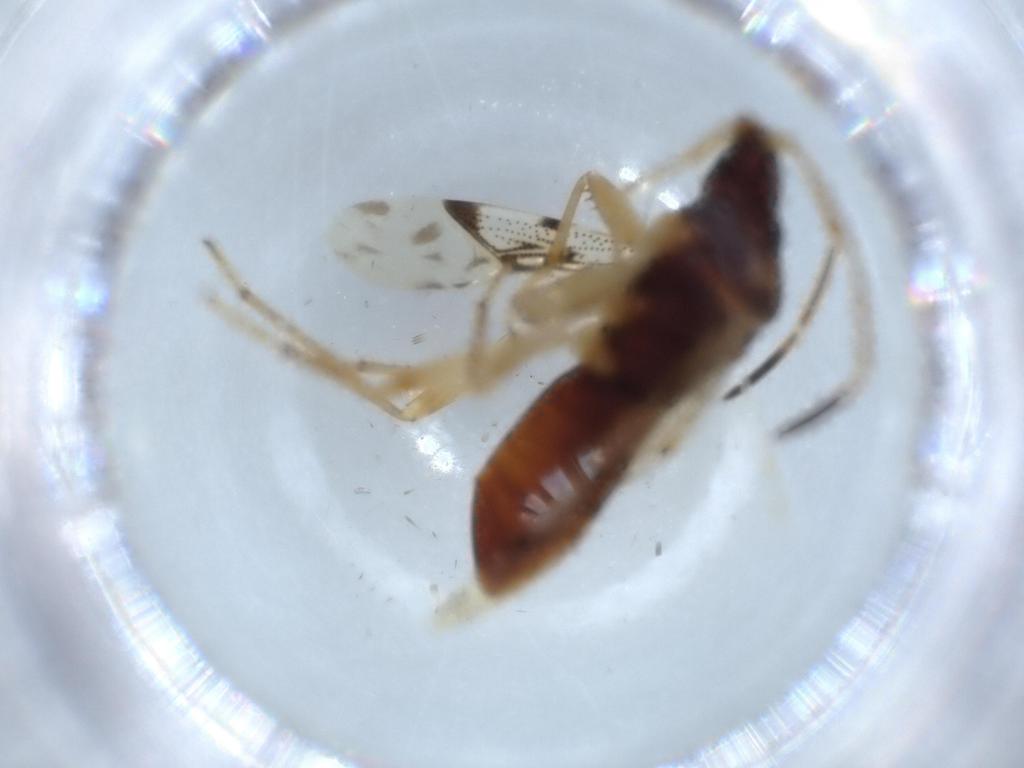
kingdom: Animalia
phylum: Arthropoda
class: Insecta
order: Hemiptera
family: Rhyparochromidae
